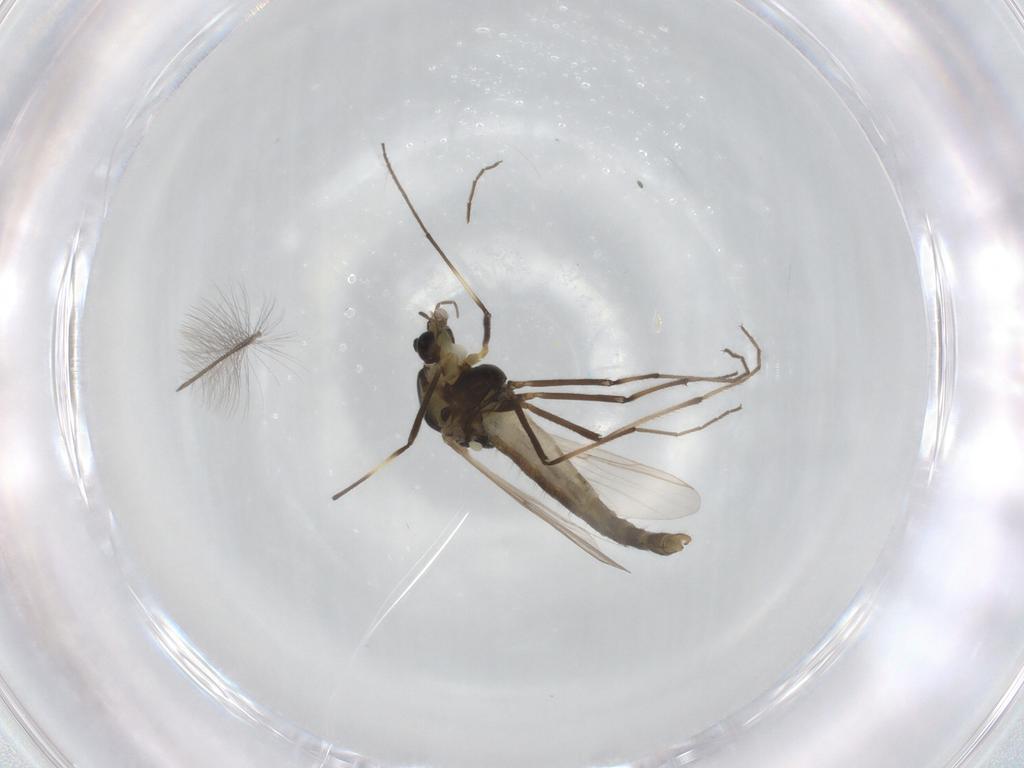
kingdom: Animalia
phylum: Arthropoda
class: Insecta
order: Diptera
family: Chironomidae
